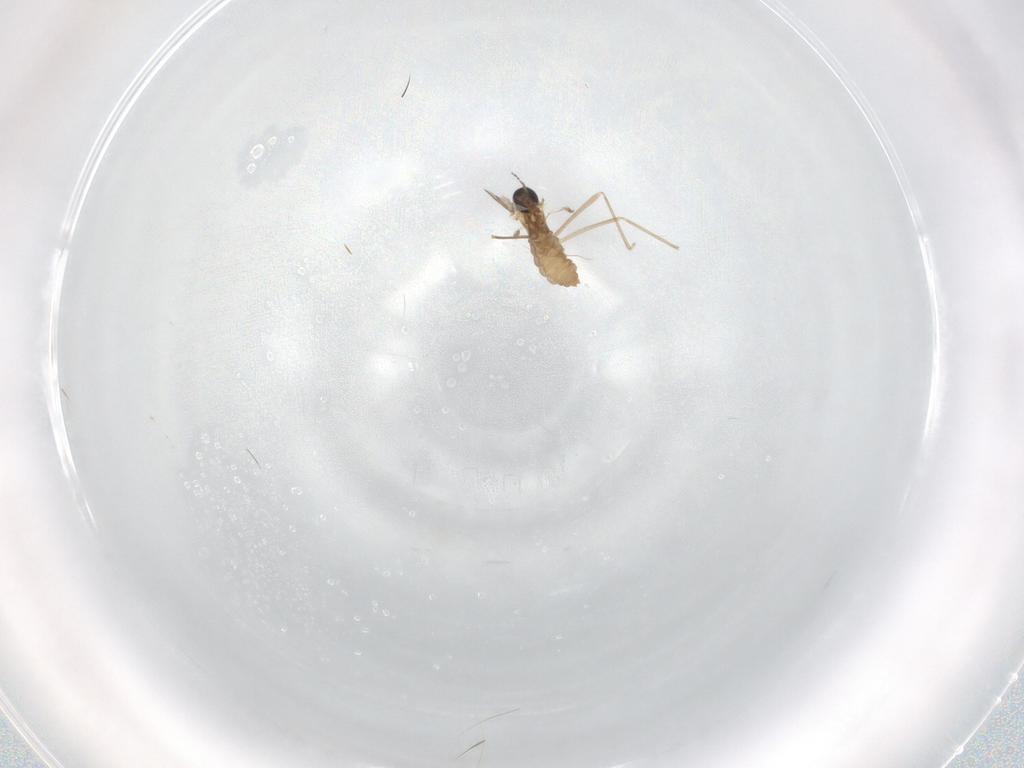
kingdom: Animalia
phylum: Arthropoda
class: Insecta
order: Diptera
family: Cecidomyiidae
